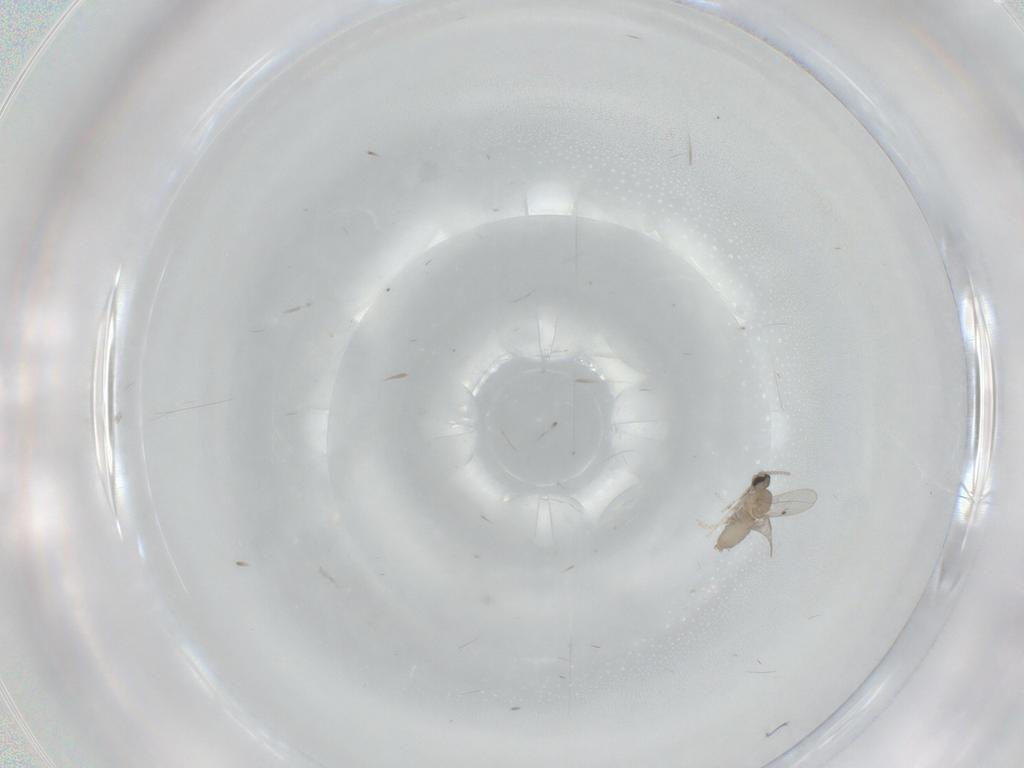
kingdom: Animalia
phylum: Arthropoda
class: Insecta
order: Diptera
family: Cecidomyiidae
